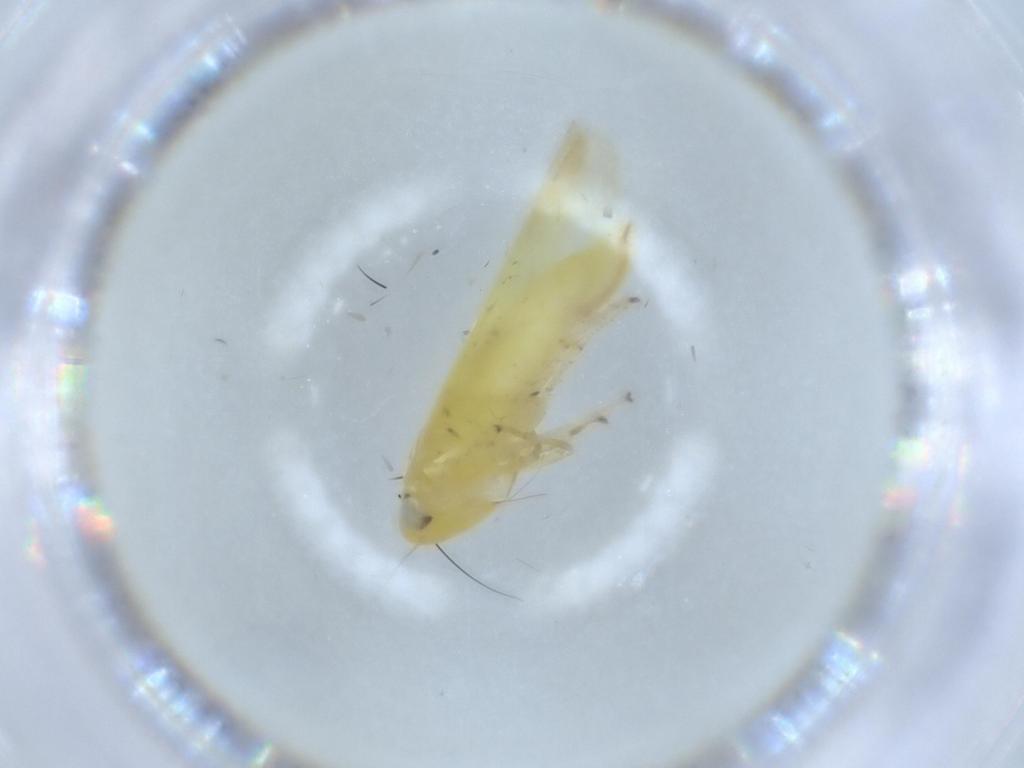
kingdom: Animalia
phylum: Arthropoda
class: Insecta
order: Hemiptera
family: Cicadellidae
